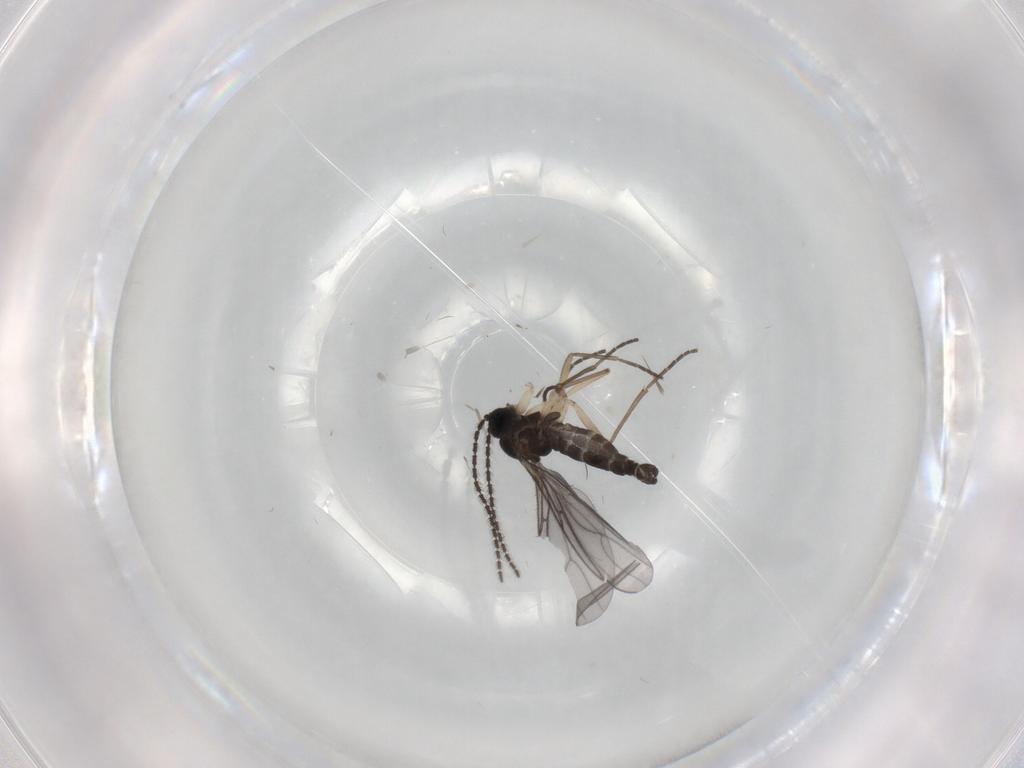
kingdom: Animalia
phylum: Arthropoda
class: Insecta
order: Diptera
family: Sciaridae
